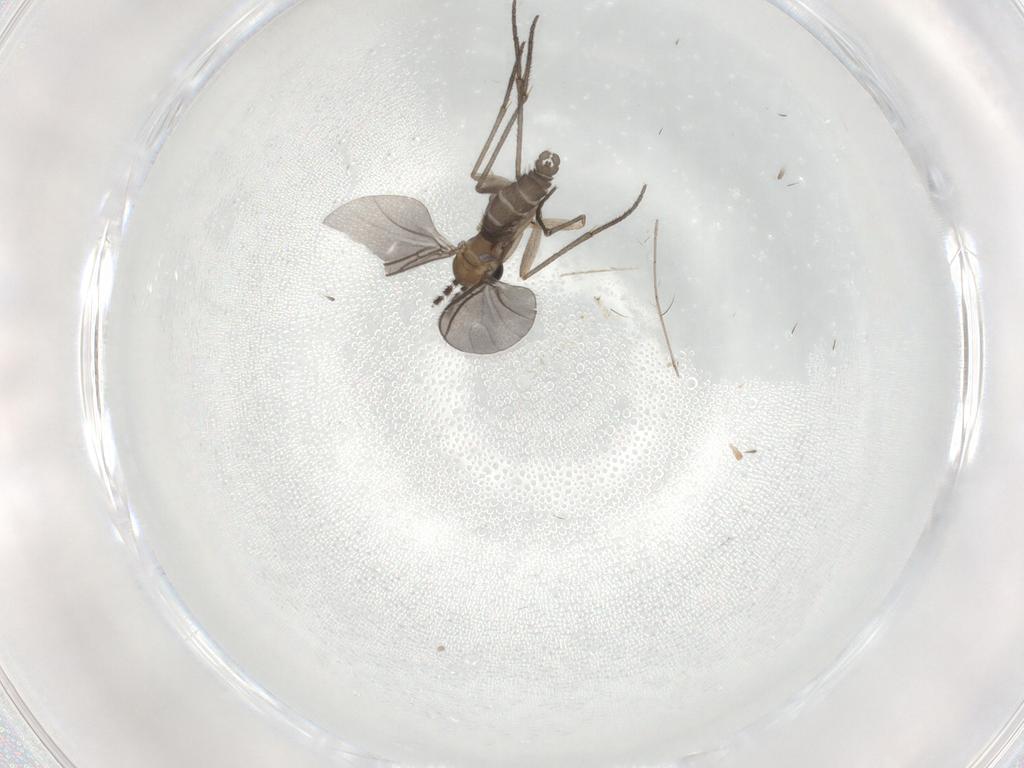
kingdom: Animalia
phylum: Arthropoda
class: Insecta
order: Diptera
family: Sciaridae
